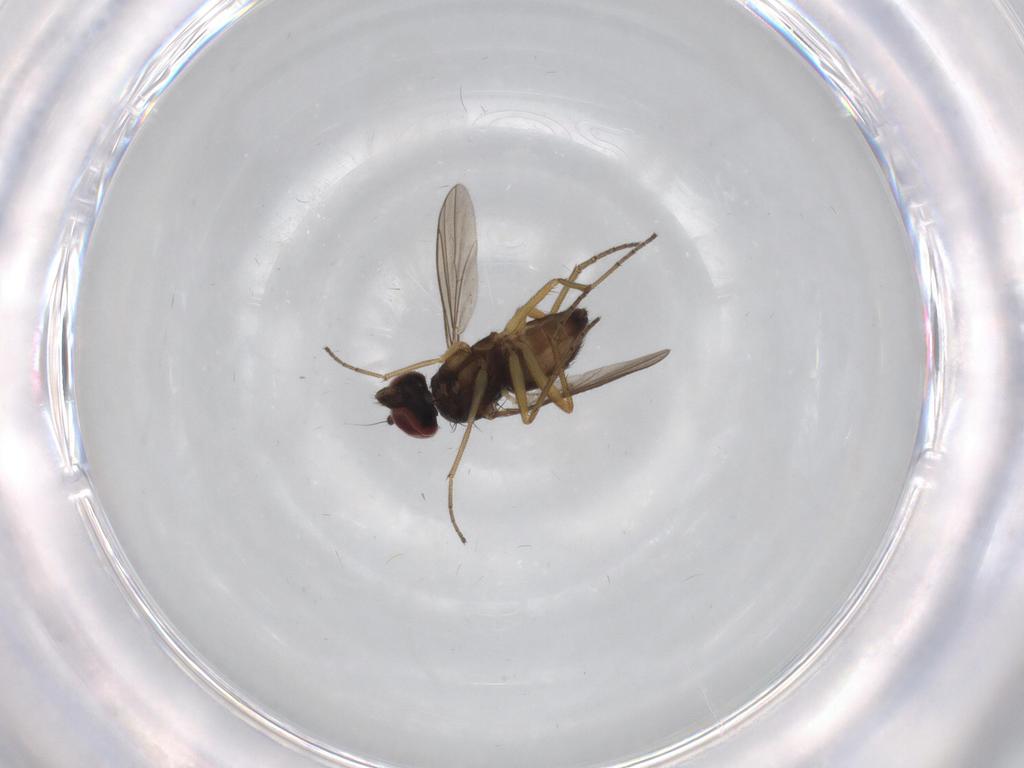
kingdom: Animalia
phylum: Arthropoda
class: Insecta
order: Diptera
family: Dolichopodidae
